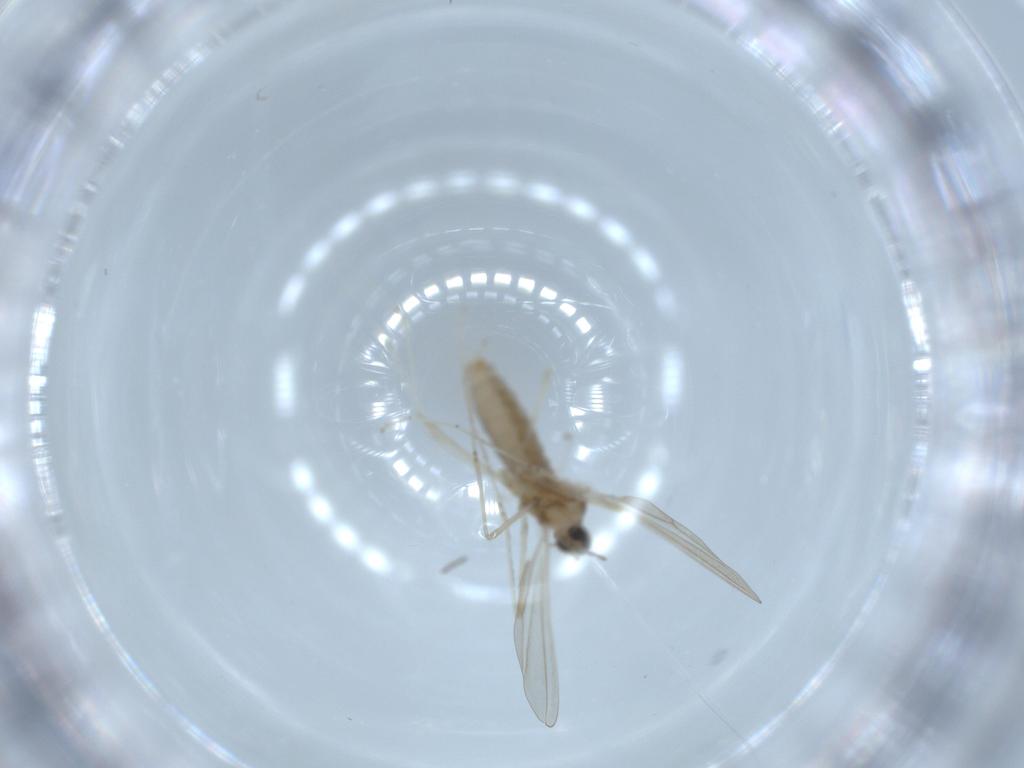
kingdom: Animalia
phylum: Arthropoda
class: Insecta
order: Diptera
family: Cecidomyiidae
